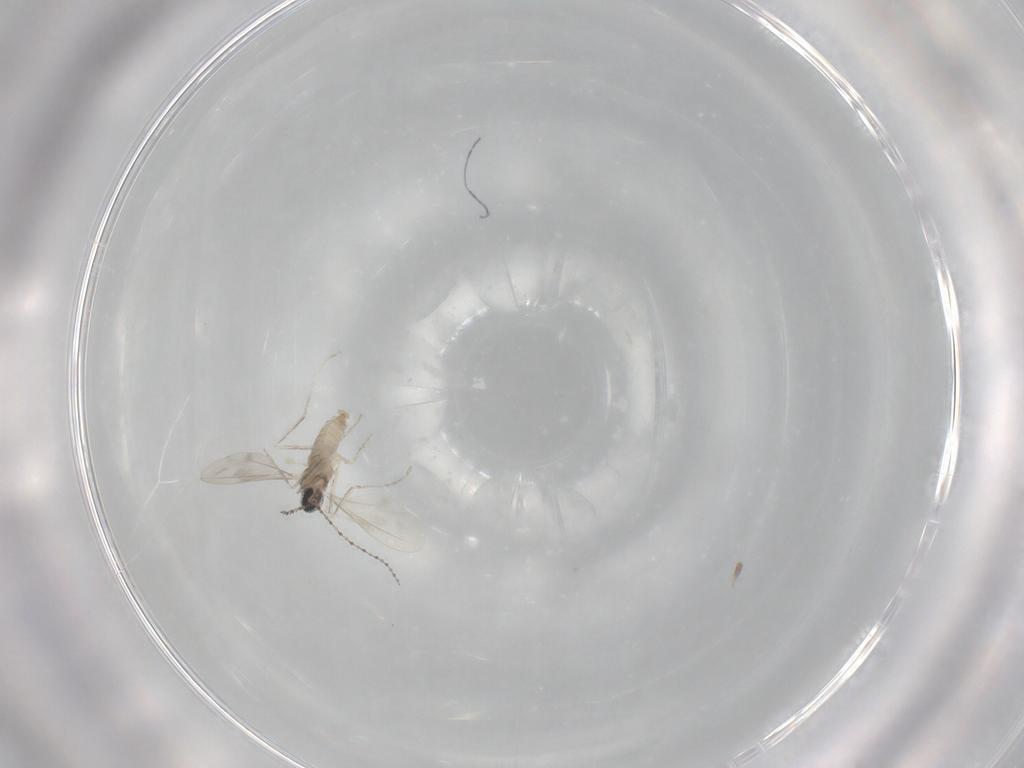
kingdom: Animalia
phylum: Arthropoda
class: Insecta
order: Diptera
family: Cecidomyiidae
